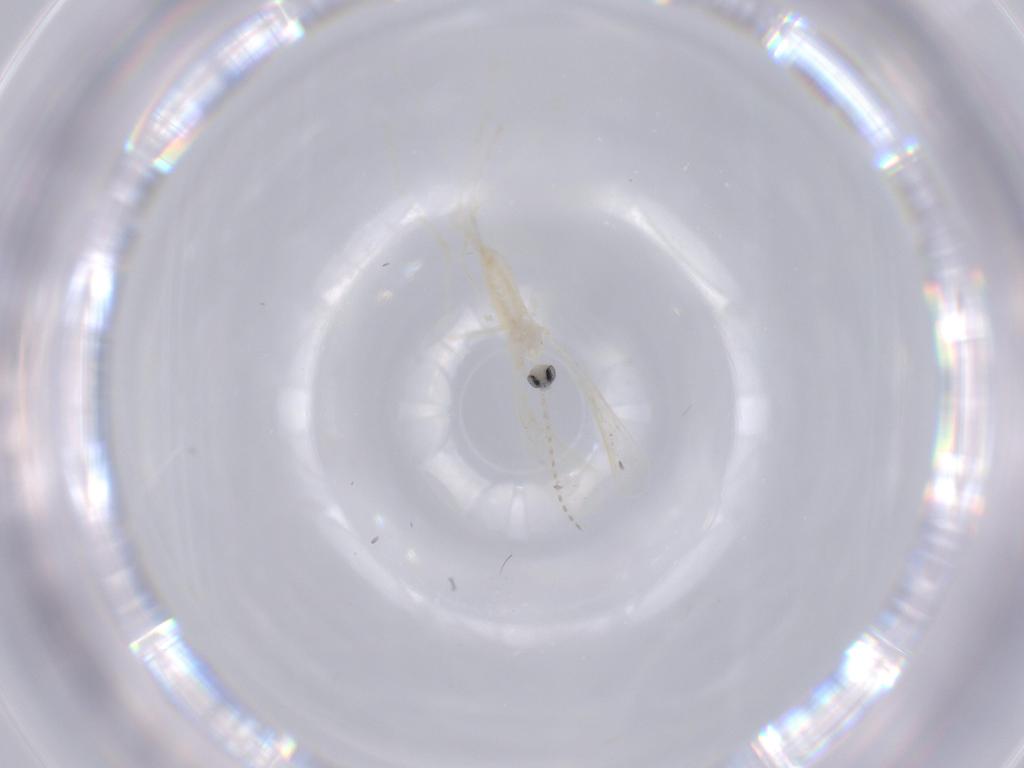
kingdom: Animalia
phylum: Arthropoda
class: Insecta
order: Diptera
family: Cecidomyiidae
